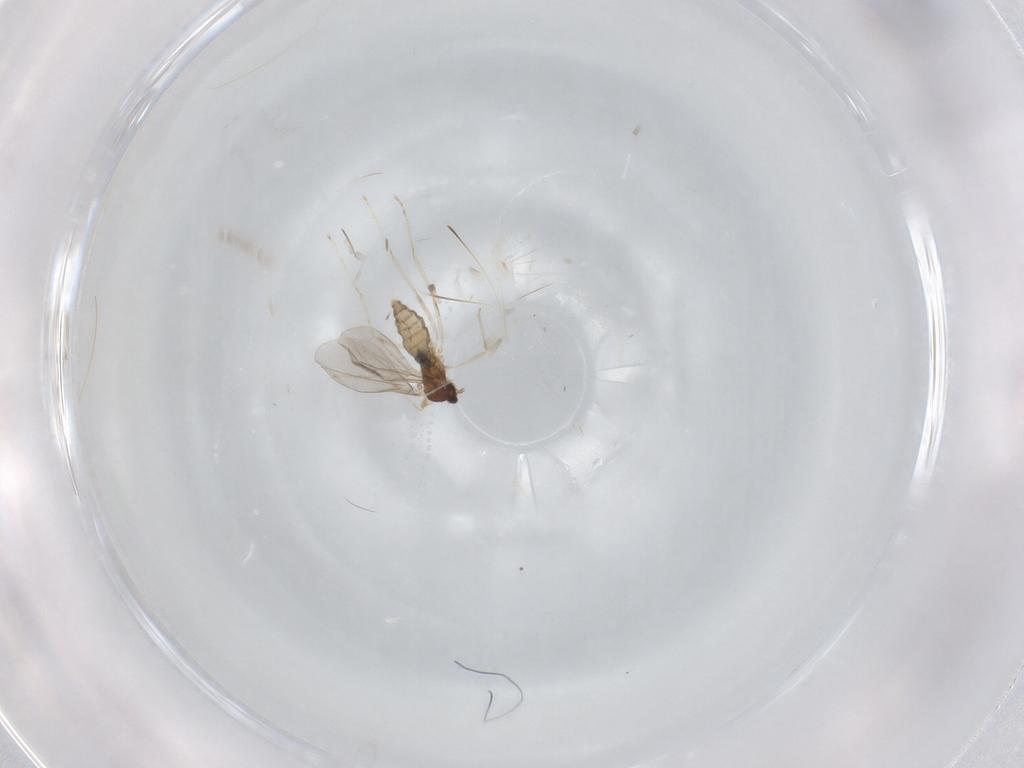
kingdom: Animalia
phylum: Arthropoda
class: Insecta
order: Diptera
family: Cecidomyiidae
